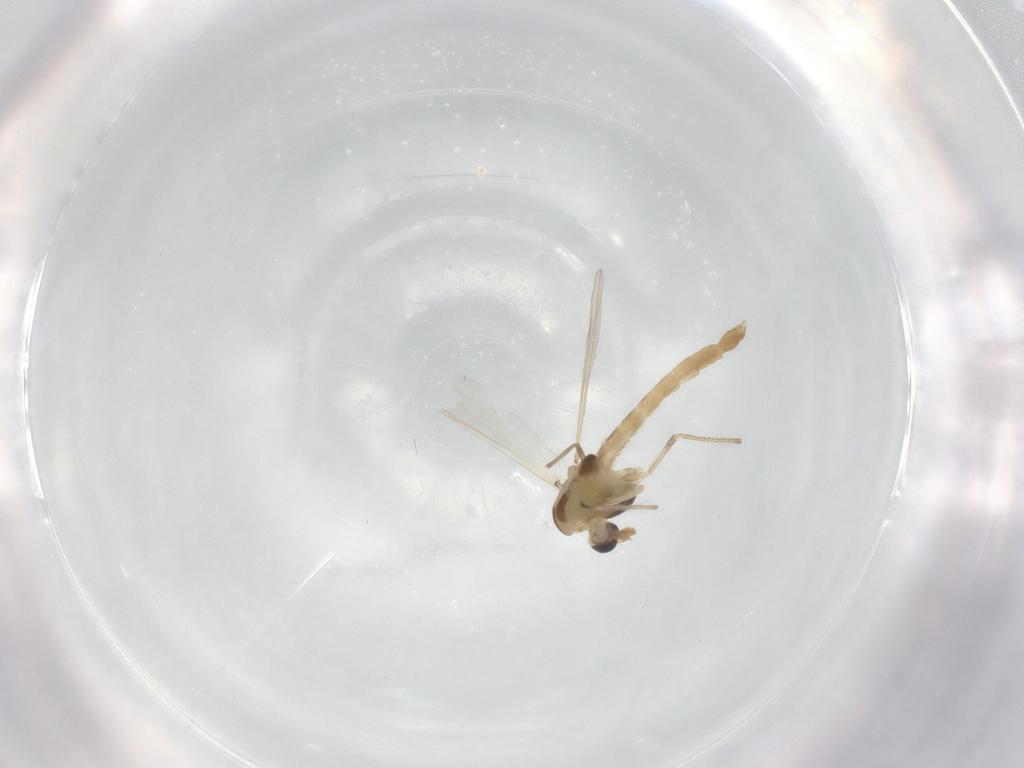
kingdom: Animalia
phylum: Arthropoda
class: Insecta
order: Diptera
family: Chironomidae
